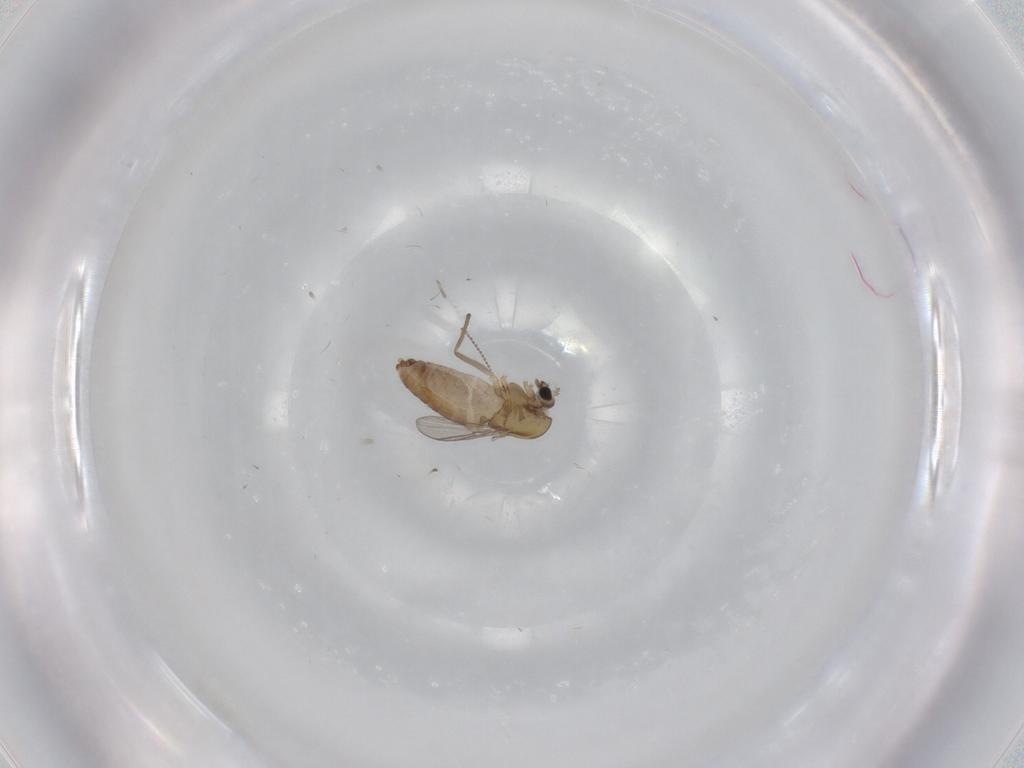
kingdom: Animalia
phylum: Arthropoda
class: Insecta
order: Diptera
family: Chironomidae
